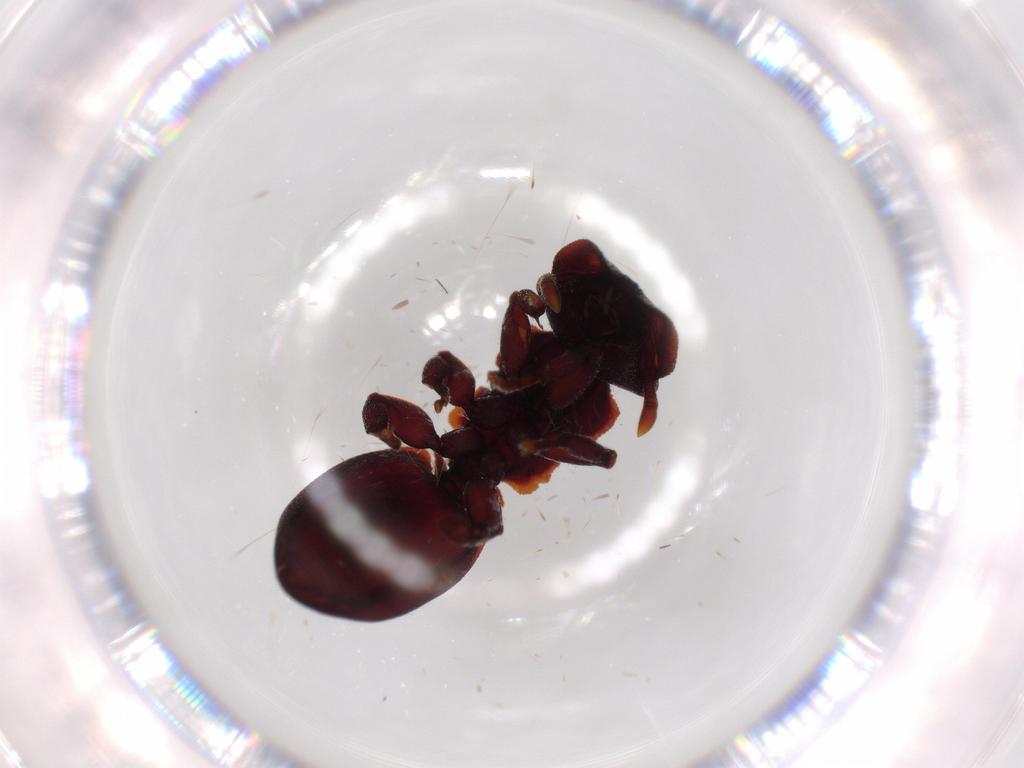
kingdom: Animalia
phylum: Arthropoda
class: Insecta
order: Hymenoptera
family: Formicidae
